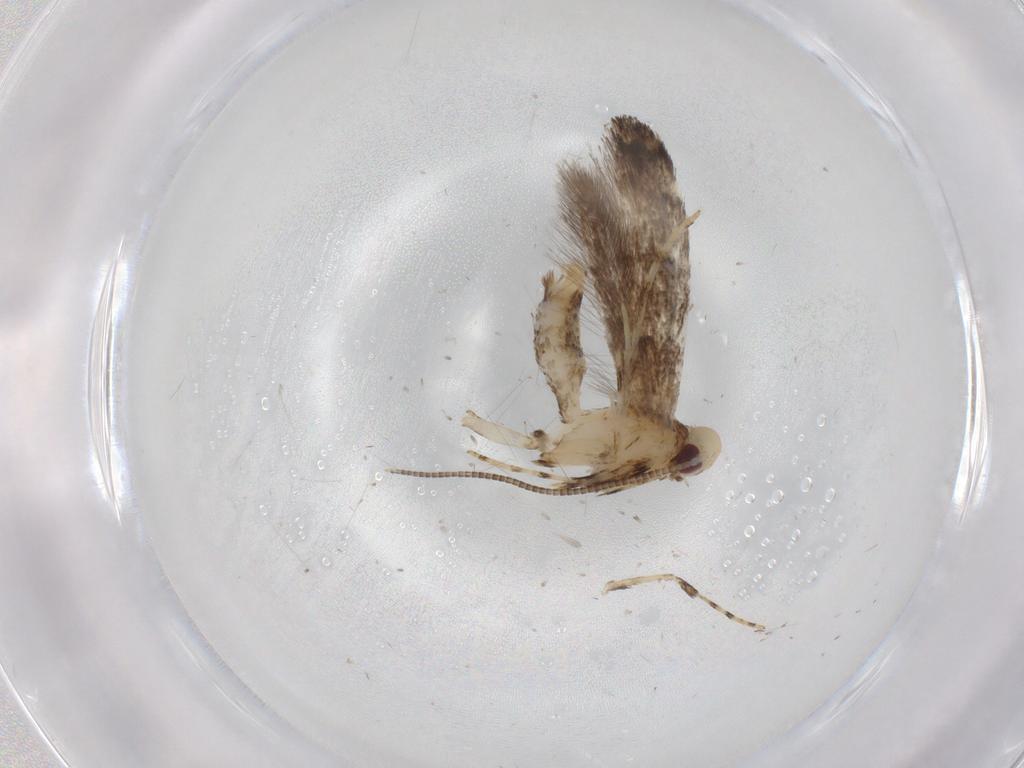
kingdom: Animalia
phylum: Arthropoda
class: Insecta
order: Lepidoptera
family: Gracillariidae
